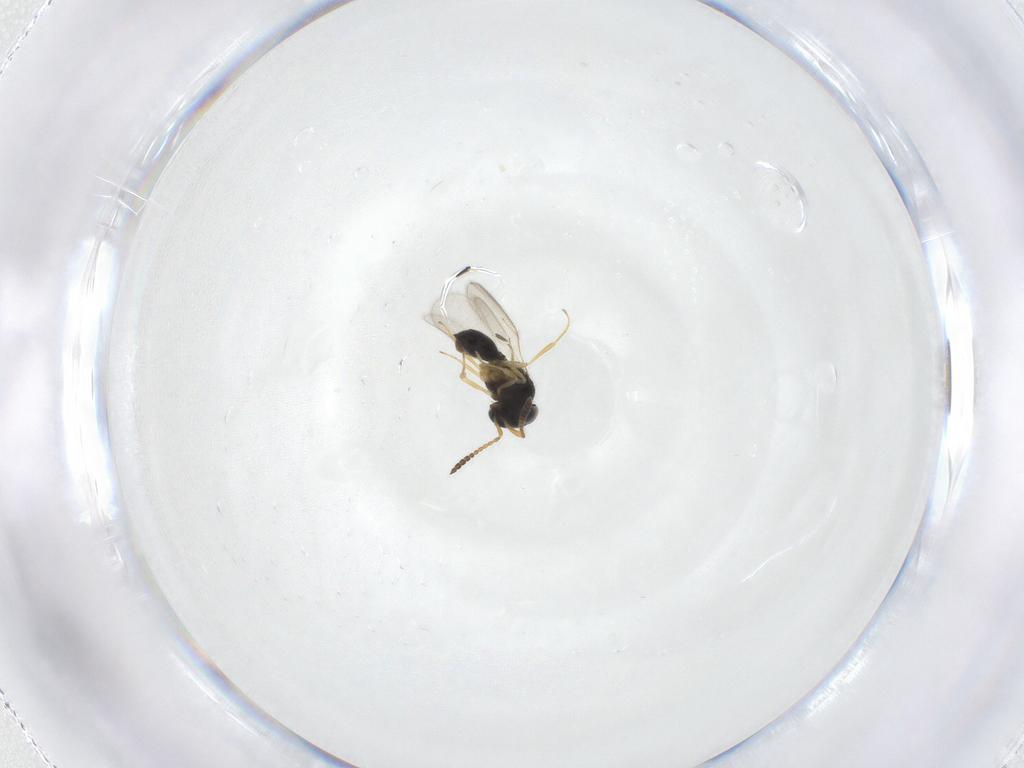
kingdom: Animalia
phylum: Arthropoda
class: Insecta
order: Hymenoptera
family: Scelionidae
